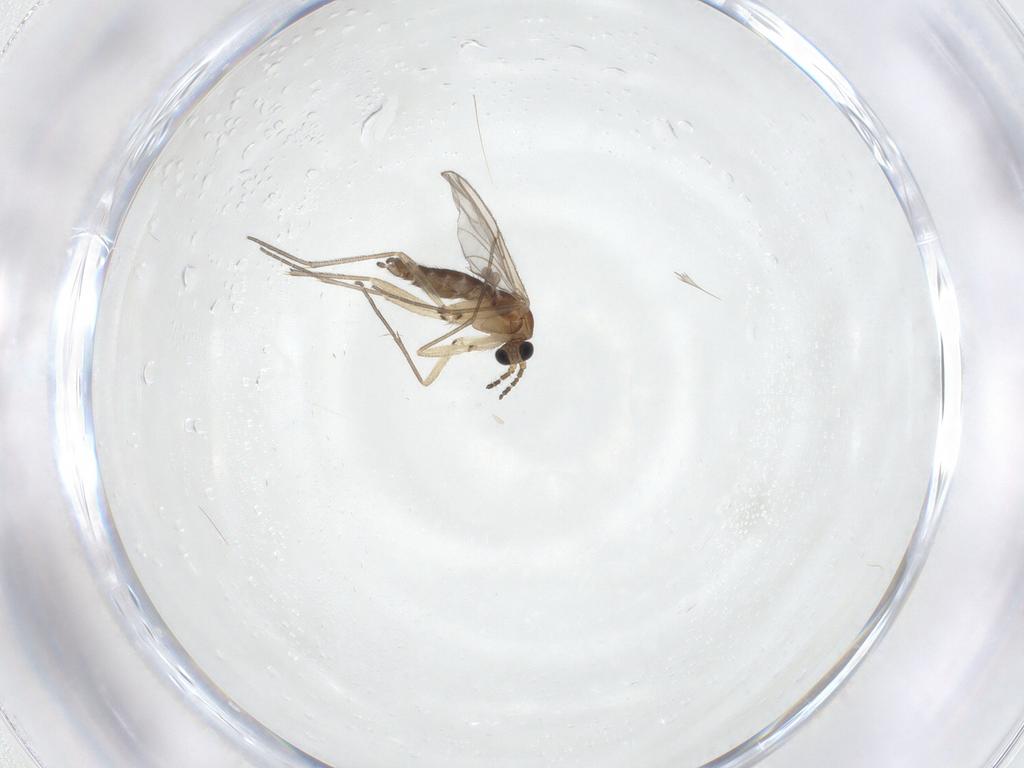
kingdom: Animalia
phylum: Arthropoda
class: Insecta
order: Diptera
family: Sciaridae
